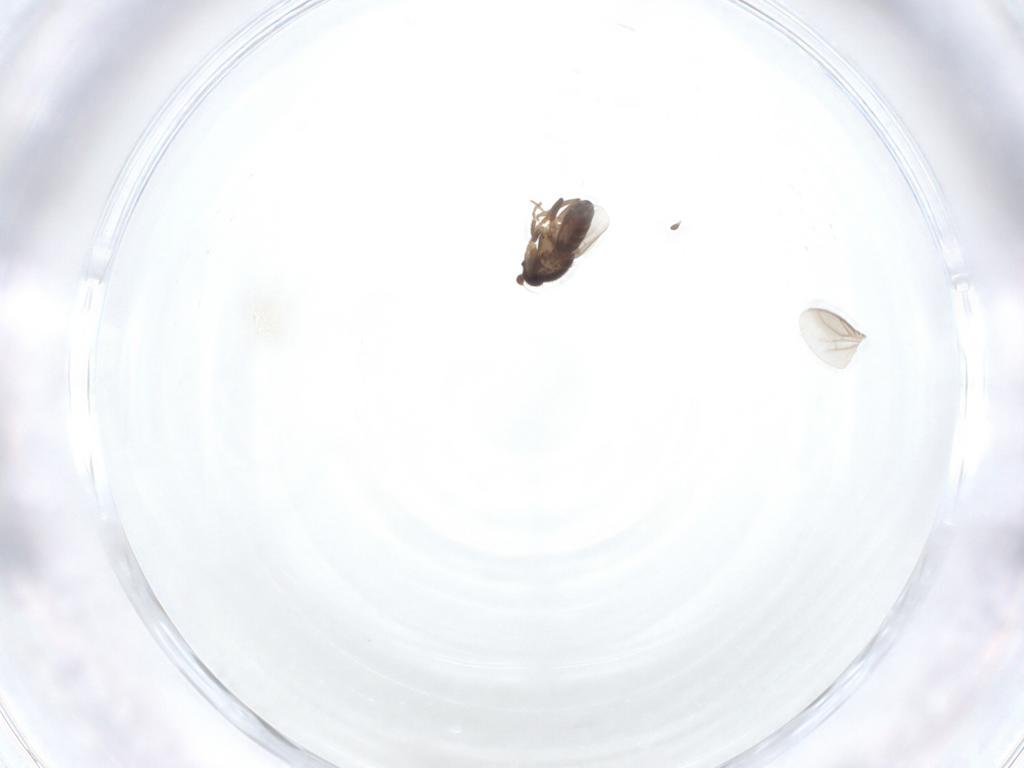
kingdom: Animalia
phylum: Arthropoda
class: Insecta
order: Diptera
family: Sphaeroceridae
